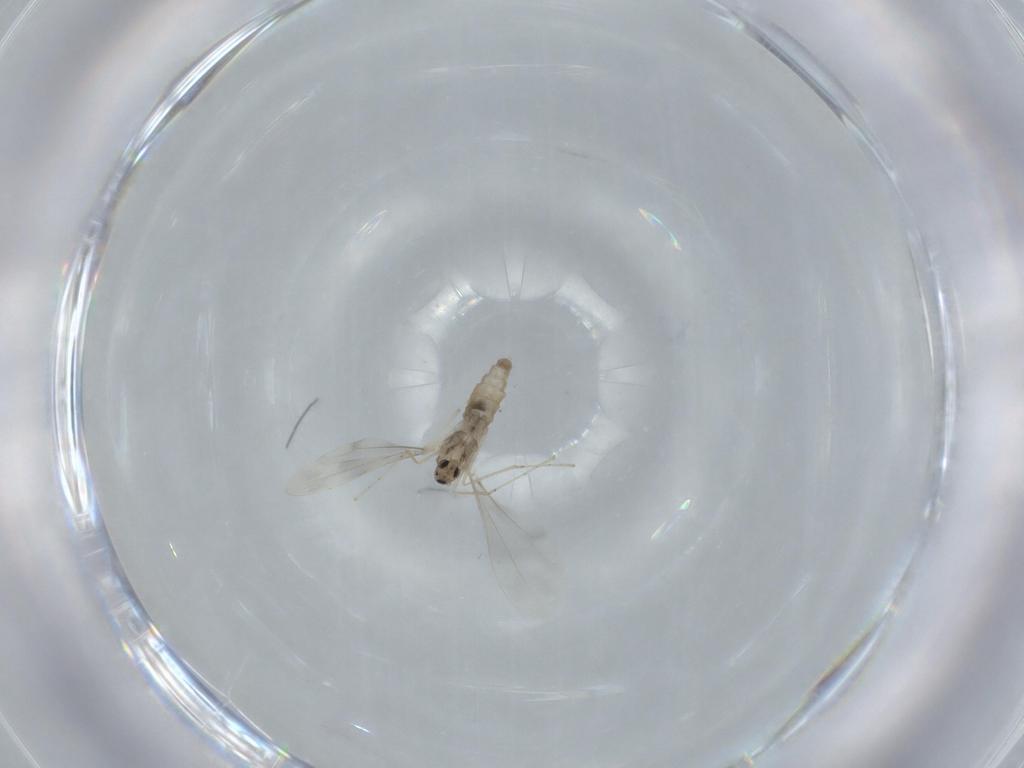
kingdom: Animalia
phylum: Arthropoda
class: Insecta
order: Diptera
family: Cecidomyiidae
